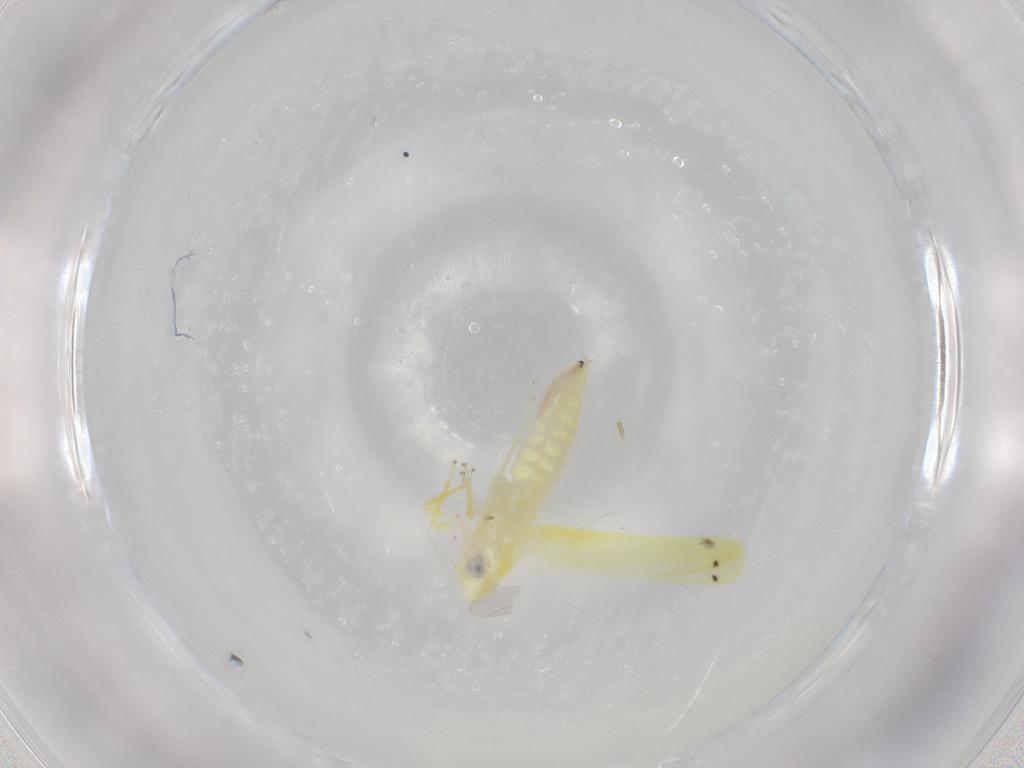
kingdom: Animalia
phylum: Arthropoda
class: Insecta
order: Hemiptera
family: Cicadellidae
